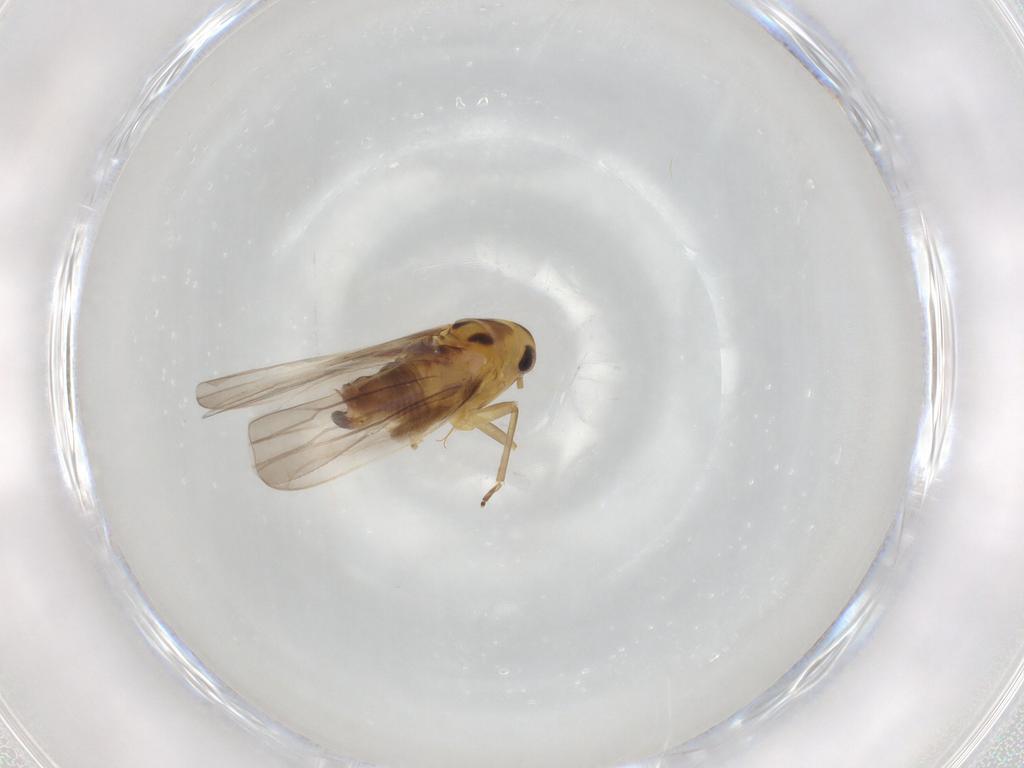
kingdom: Animalia
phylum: Arthropoda
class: Insecta
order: Hemiptera
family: Cicadellidae
